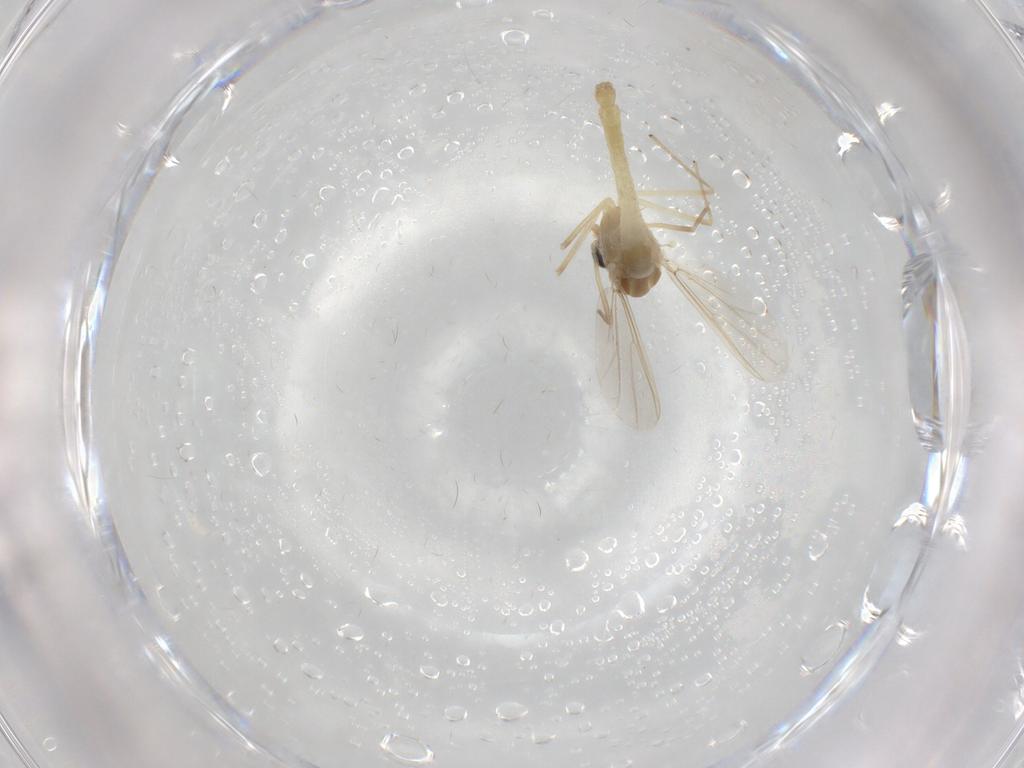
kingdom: Animalia
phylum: Arthropoda
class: Insecta
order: Diptera
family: Chironomidae
